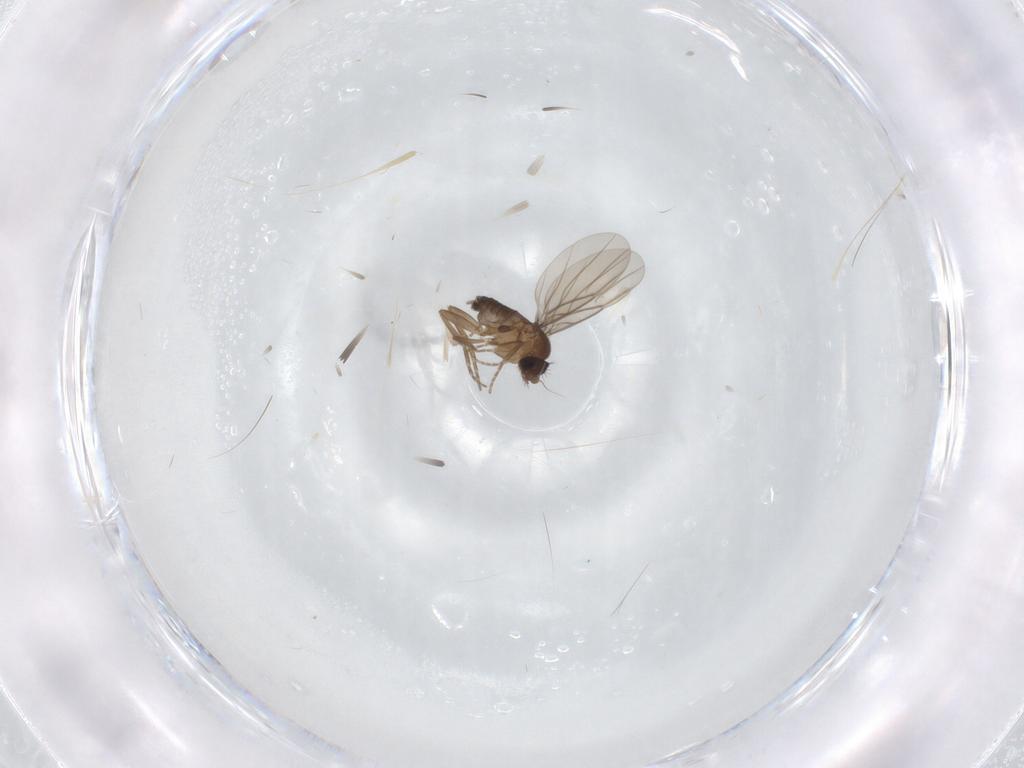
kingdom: Animalia
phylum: Arthropoda
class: Insecta
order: Diptera
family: Phoridae
